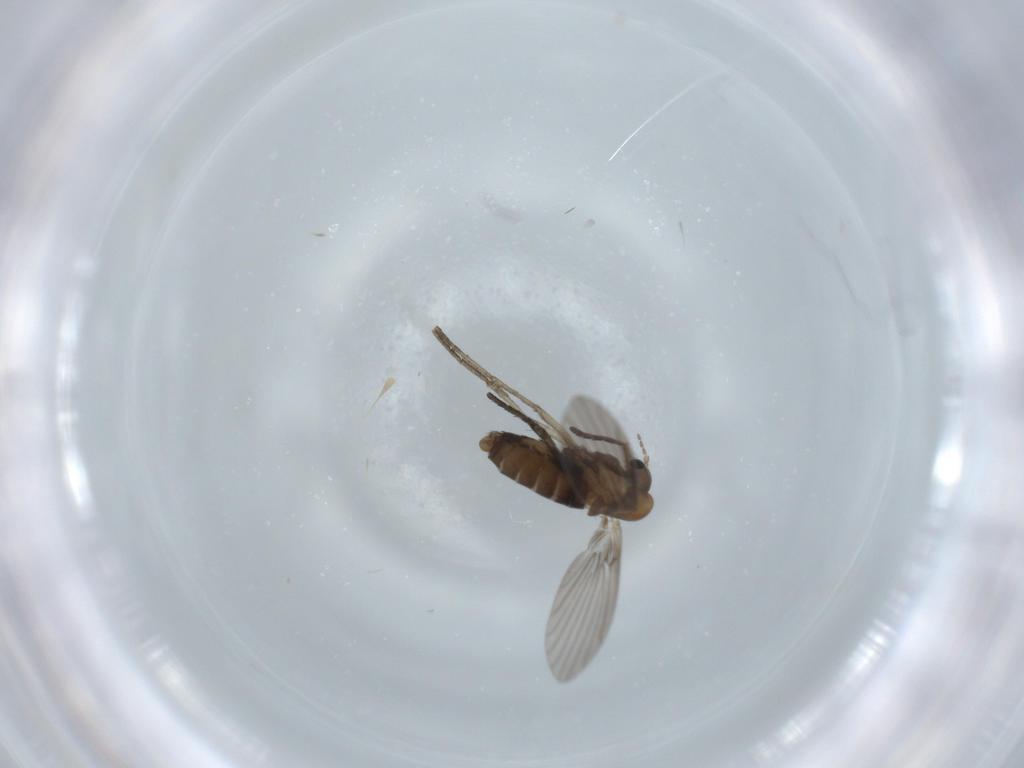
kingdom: Animalia
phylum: Arthropoda
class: Insecta
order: Diptera
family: Psychodidae
